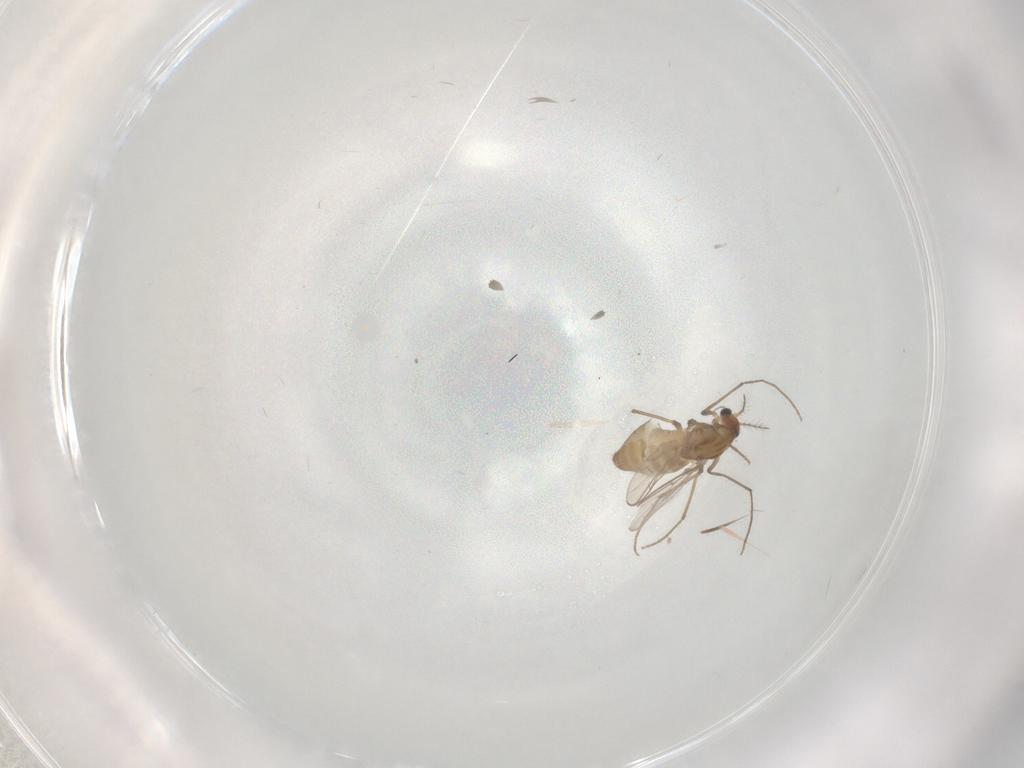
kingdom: Animalia
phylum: Arthropoda
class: Insecta
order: Diptera
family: Chironomidae
